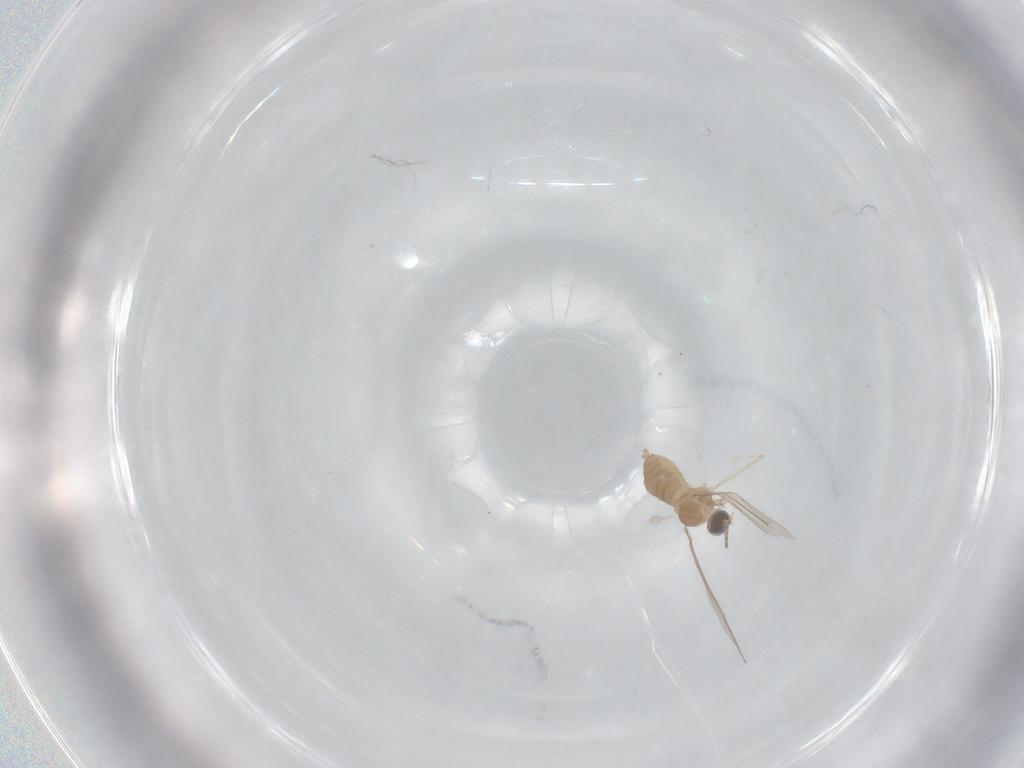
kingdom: Animalia
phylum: Arthropoda
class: Insecta
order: Diptera
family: Cecidomyiidae
